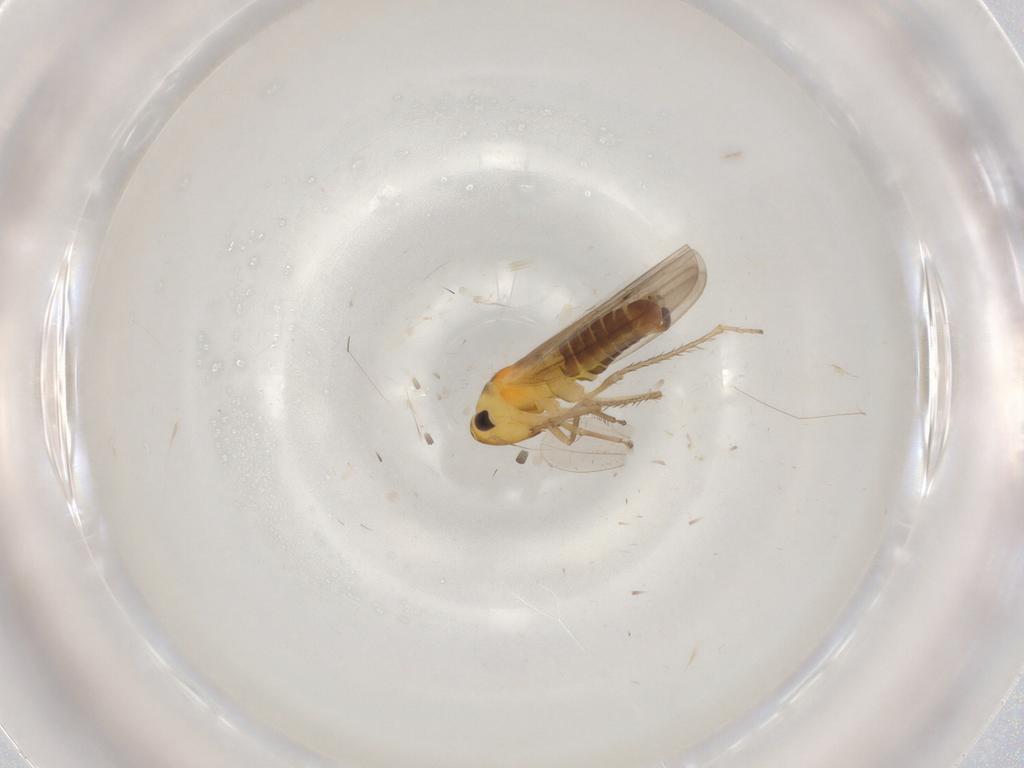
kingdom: Animalia
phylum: Arthropoda
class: Insecta
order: Hemiptera
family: Cicadellidae
